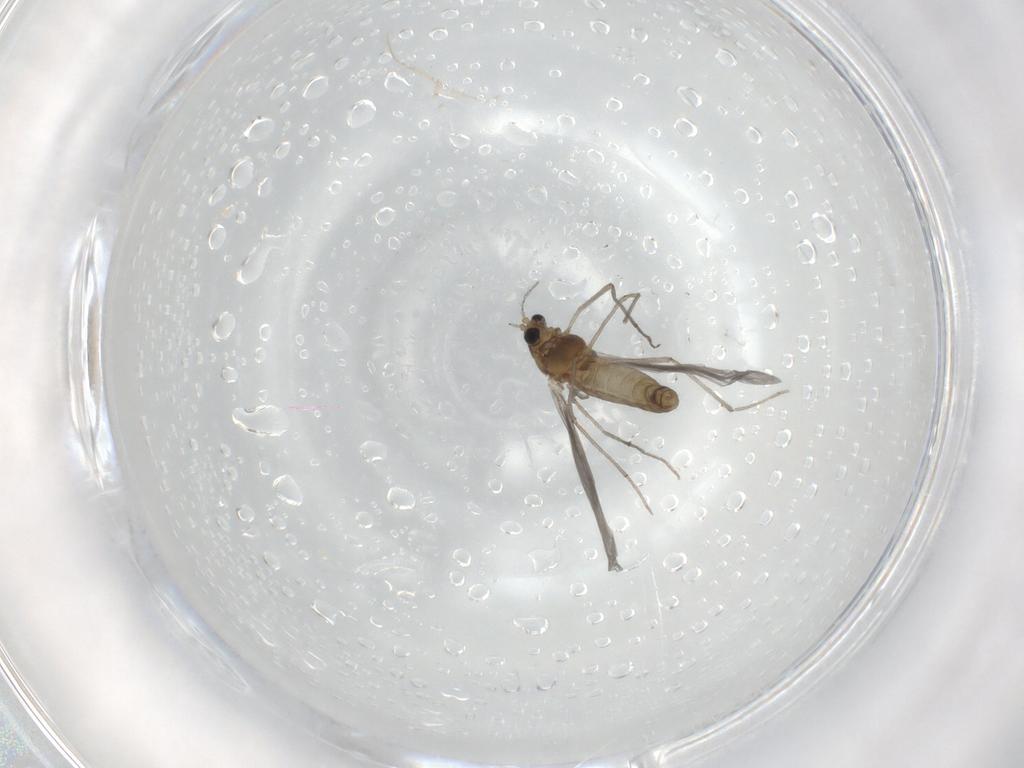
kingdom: Animalia
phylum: Arthropoda
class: Insecta
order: Diptera
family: Chironomidae
